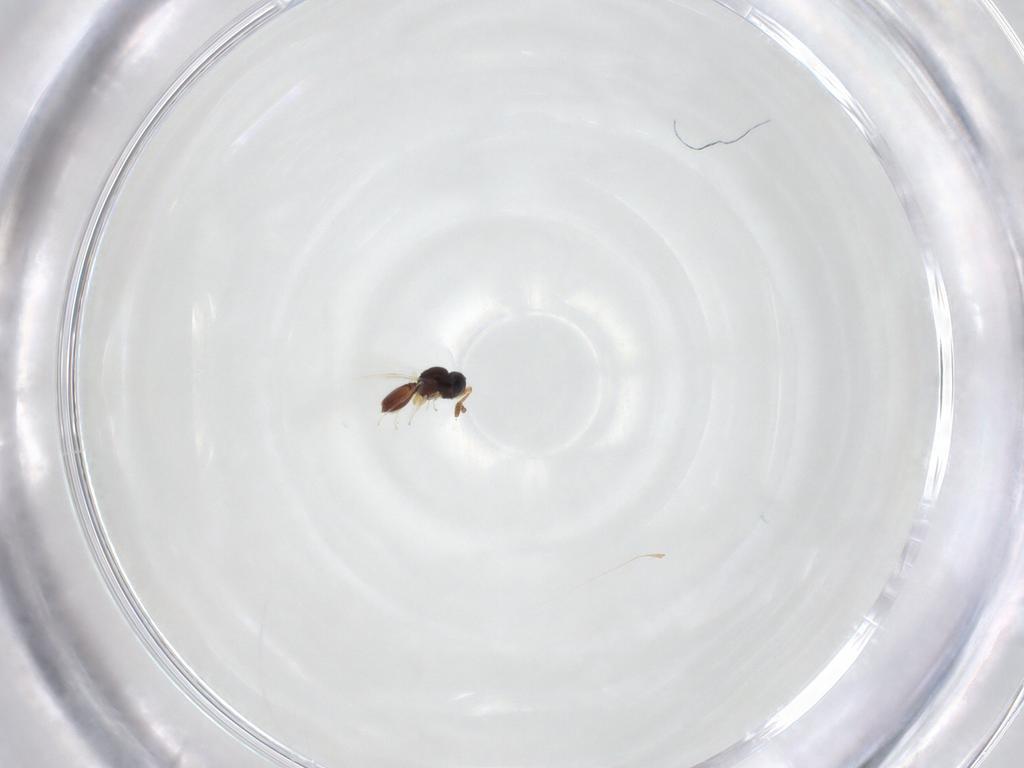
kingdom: Animalia
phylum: Arthropoda
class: Insecta
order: Hymenoptera
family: Scelionidae
